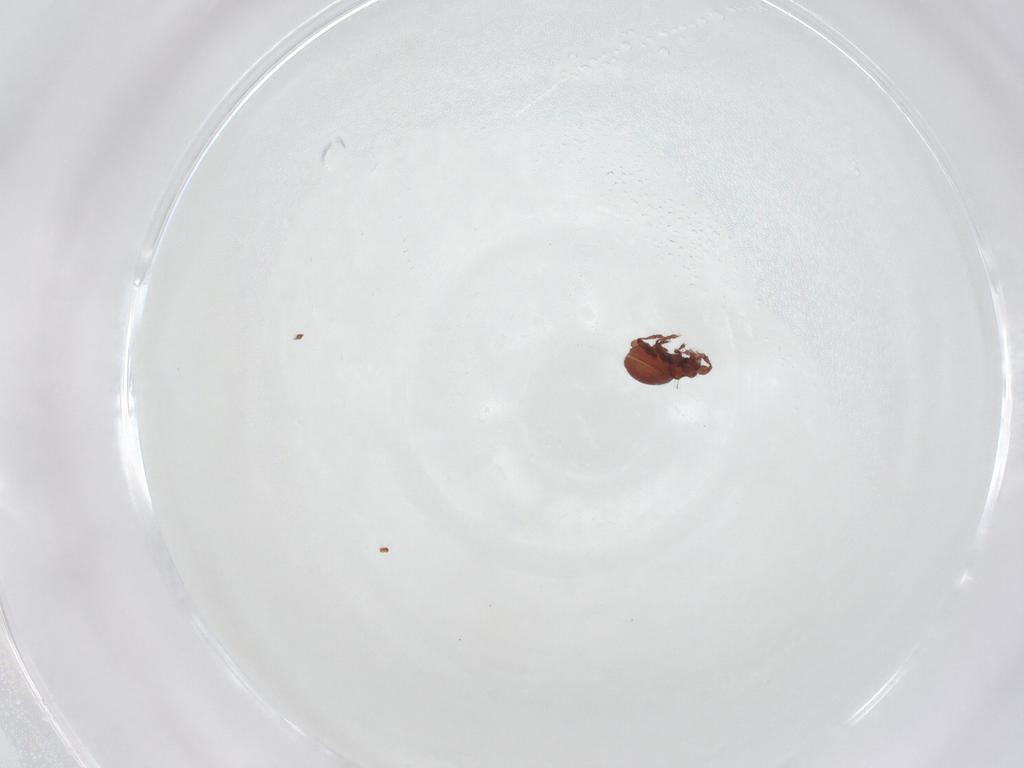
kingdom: Animalia
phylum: Arthropoda
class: Arachnida
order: Sarcoptiformes
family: Eremaeidae
